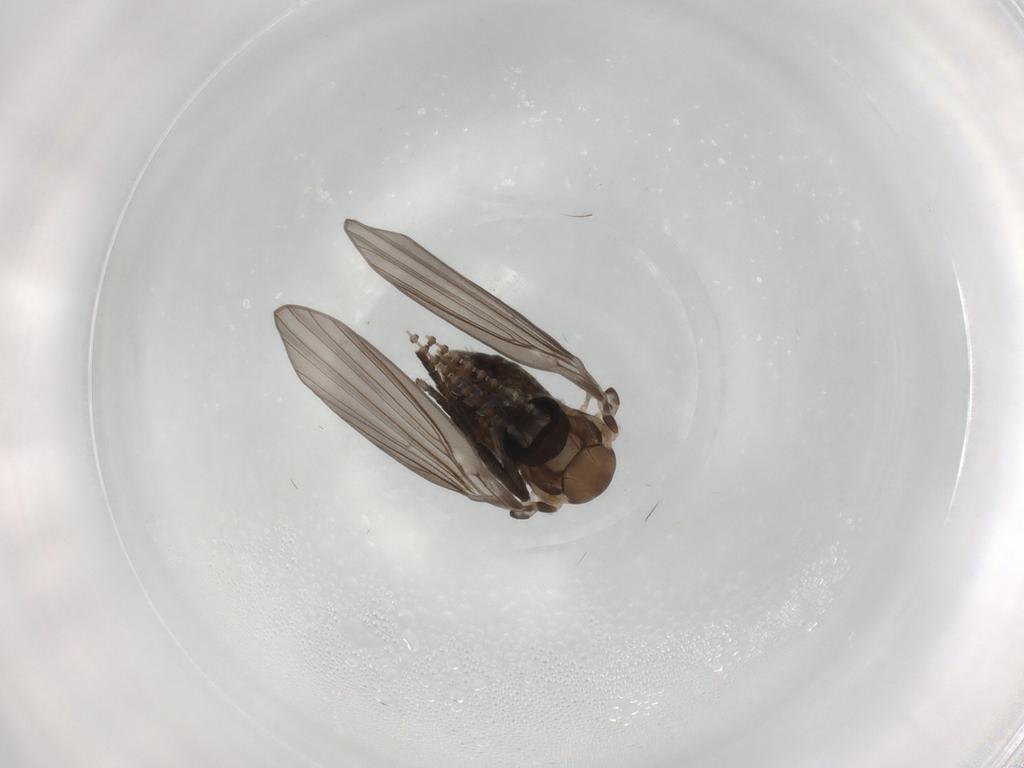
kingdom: Animalia
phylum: Arthropoda
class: Insecta
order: Diptera
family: Psychodidae
